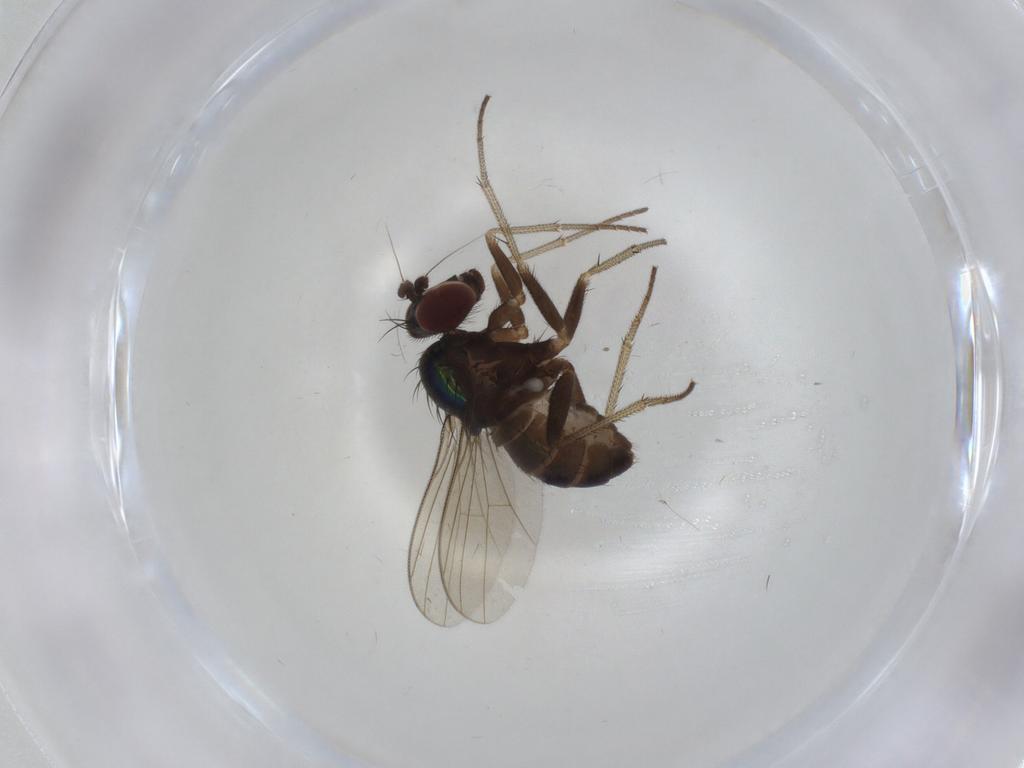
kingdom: Animalia
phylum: Arthropoda
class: Insecta
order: Diptera
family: Dolichopodidae
